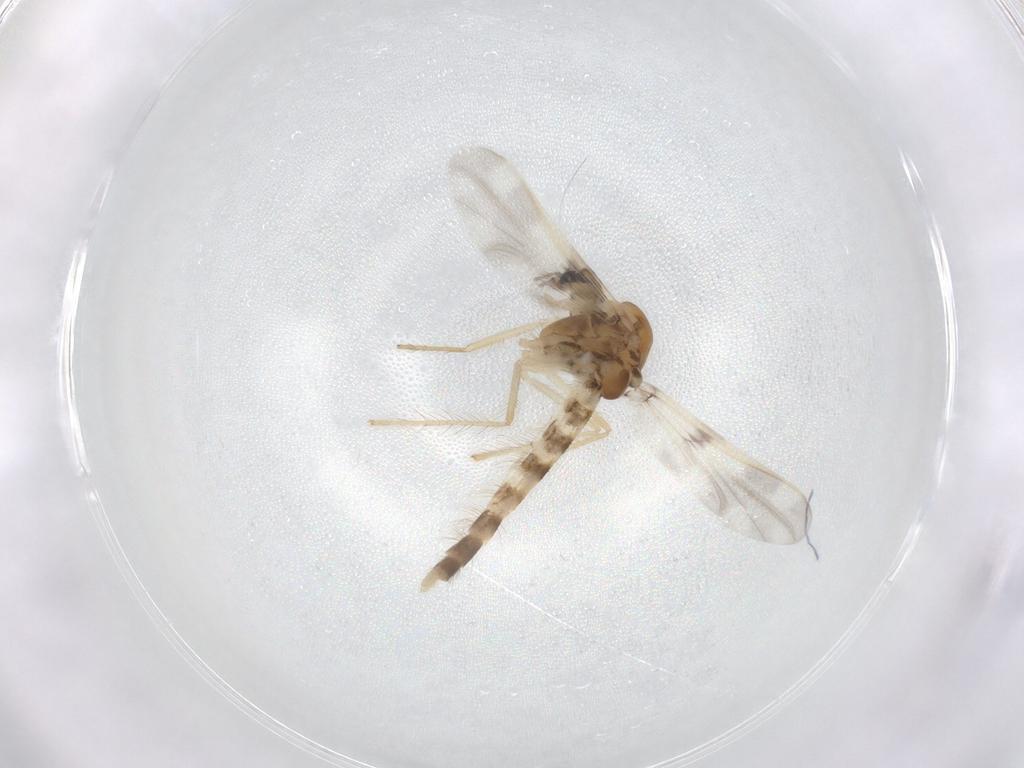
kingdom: Animalia
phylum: Arthropoda
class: Insecta
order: Diptera
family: Chironomidae
